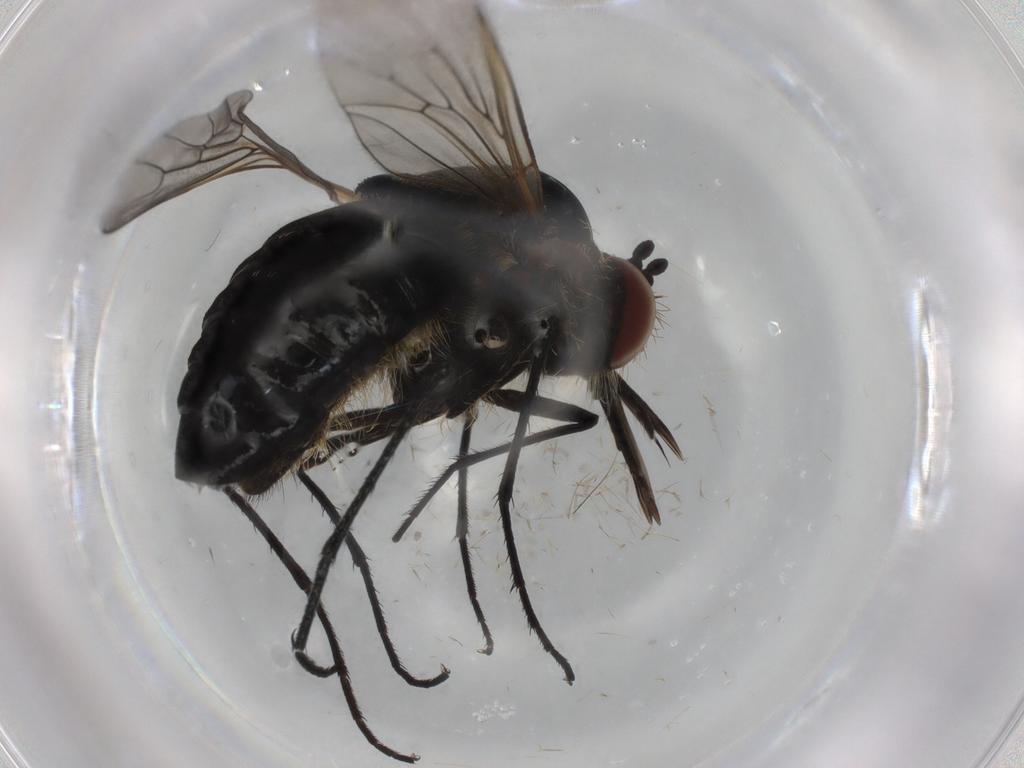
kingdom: Animalia
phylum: Arthropoda
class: Insecta
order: Diptera
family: Bombyliidae
